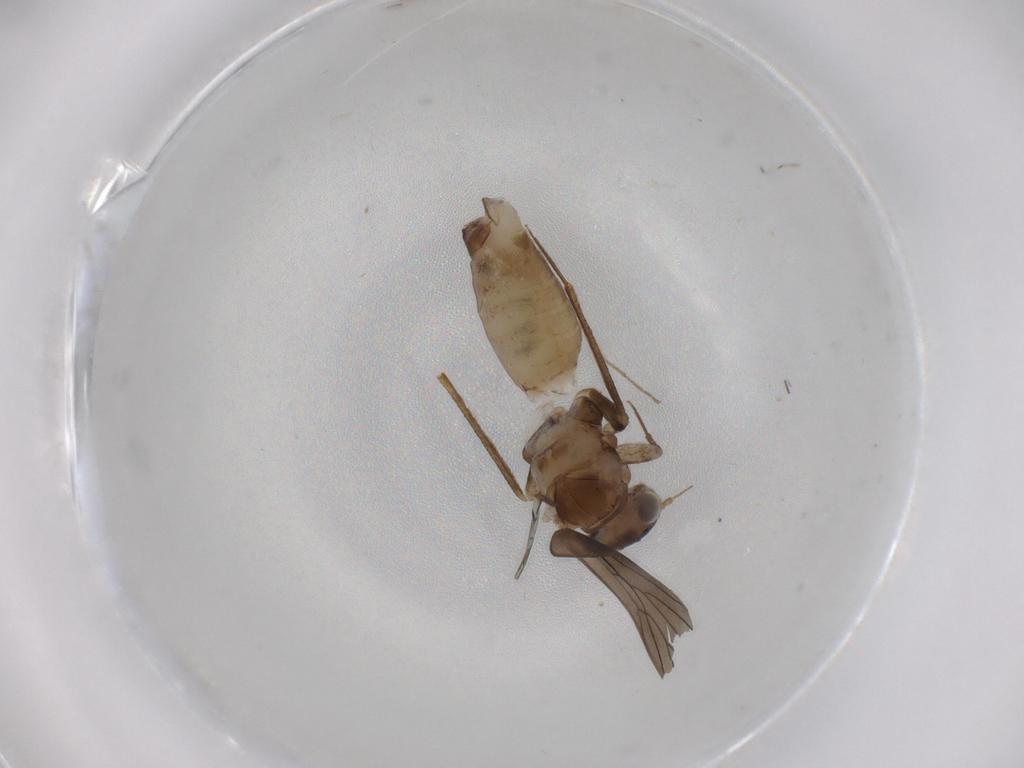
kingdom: Animalia
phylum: Arthropoda
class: Insecta
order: Psocodea
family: Lepidopsocidae
